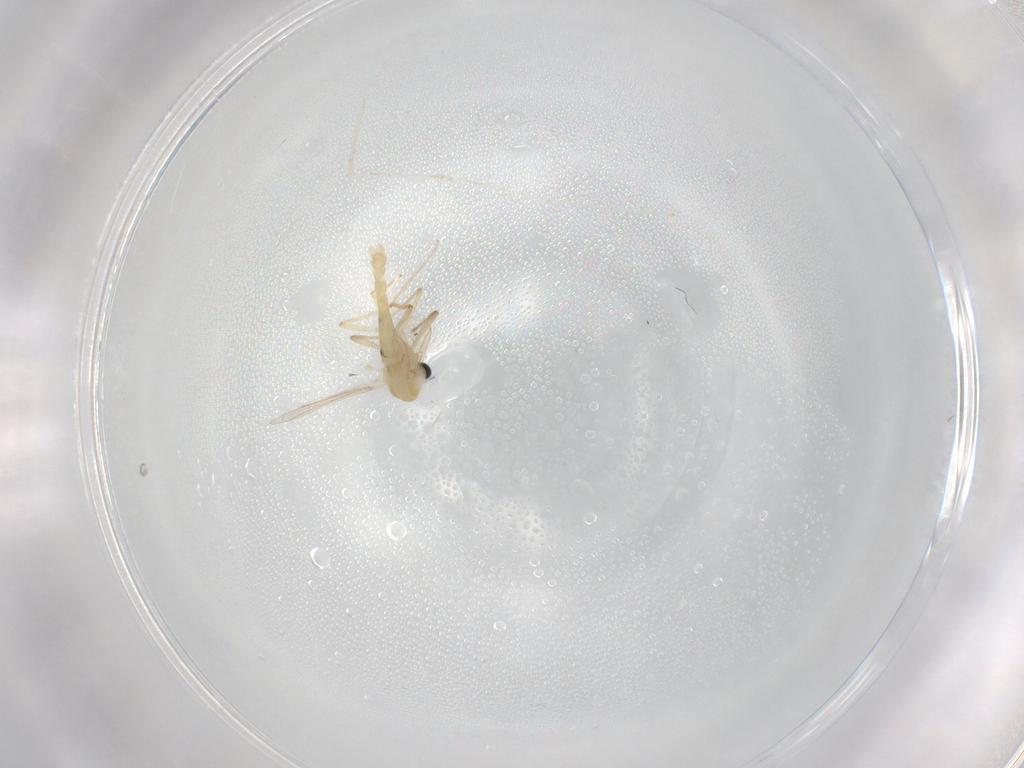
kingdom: Animalia
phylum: Arthropoda
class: Insecta
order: Diptera
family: Chironomidae
